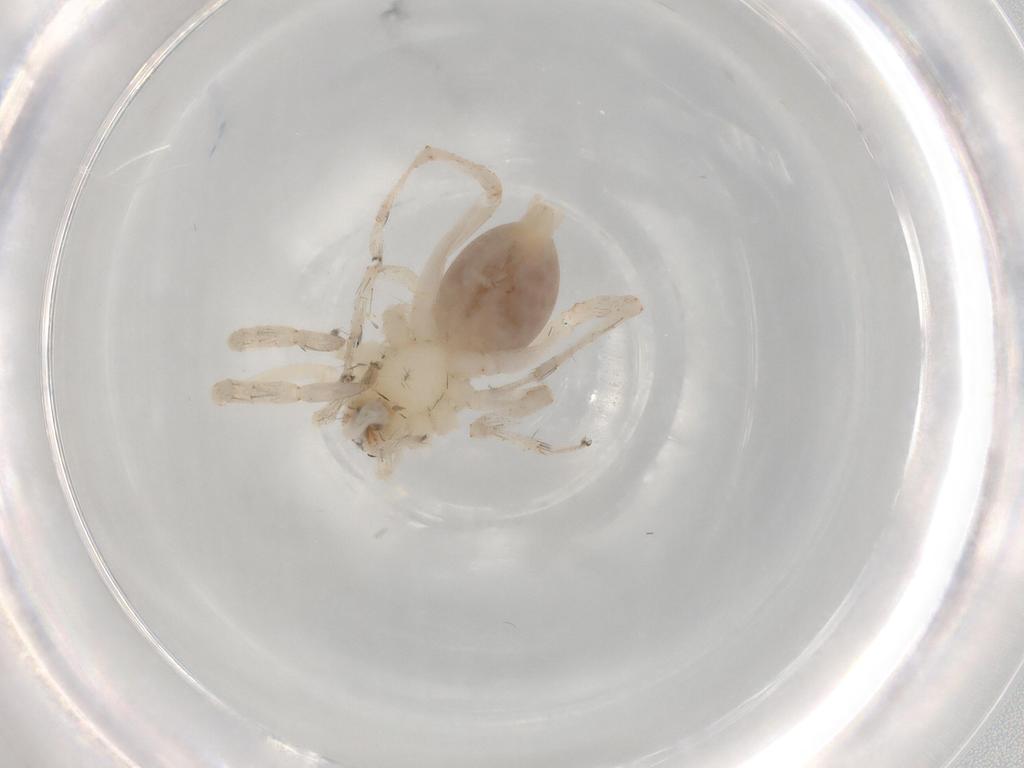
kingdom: Animalia
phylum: Arthropoda
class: Arachnida
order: Araneae
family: Anyphaenidae
